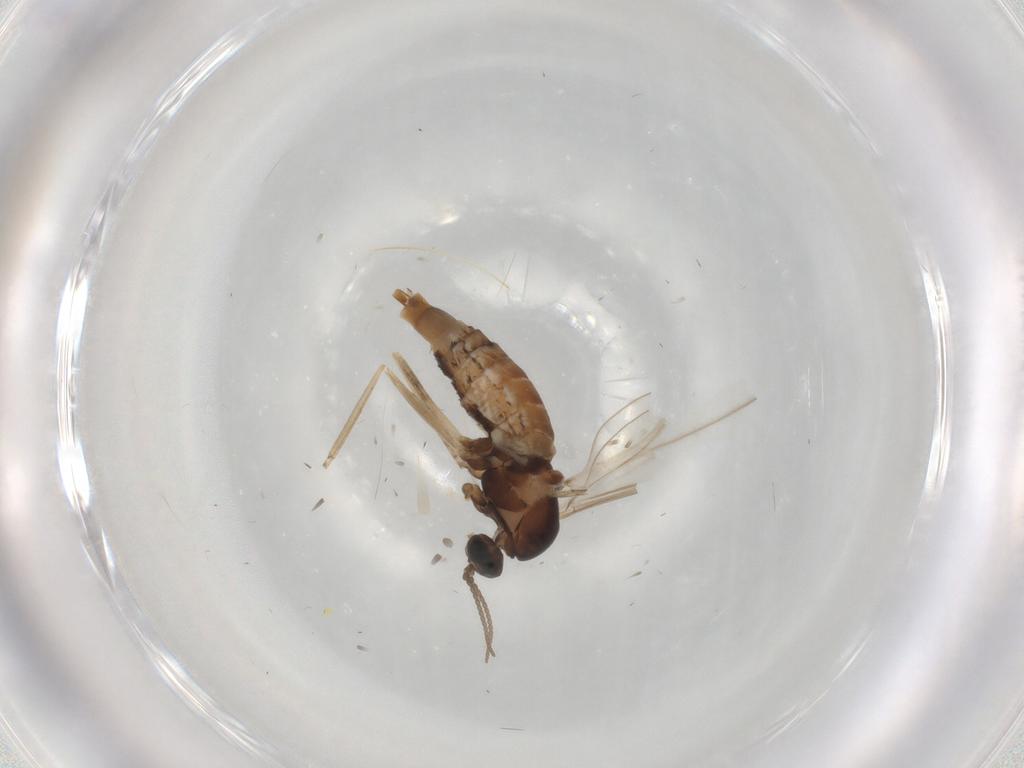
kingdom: Animalia
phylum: Arthropoda
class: Insecta
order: Diptera
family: Cecidomyiidae
